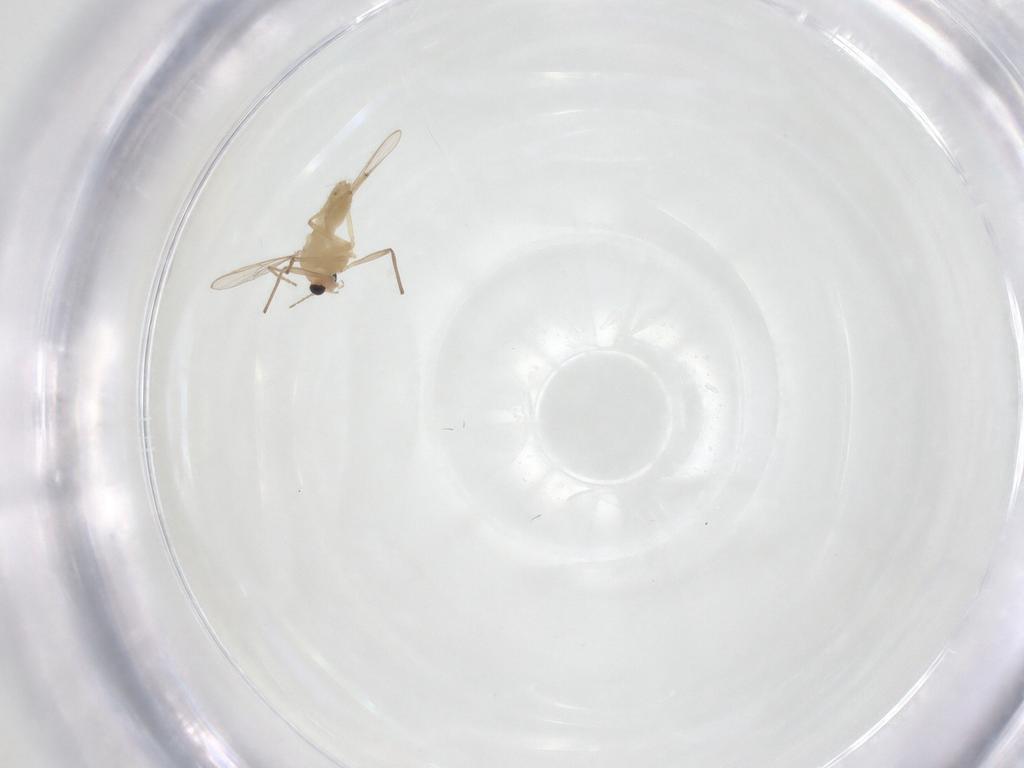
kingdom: Animalia
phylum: Arthropoda
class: Insecta
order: Diptera
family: Chironomidae
